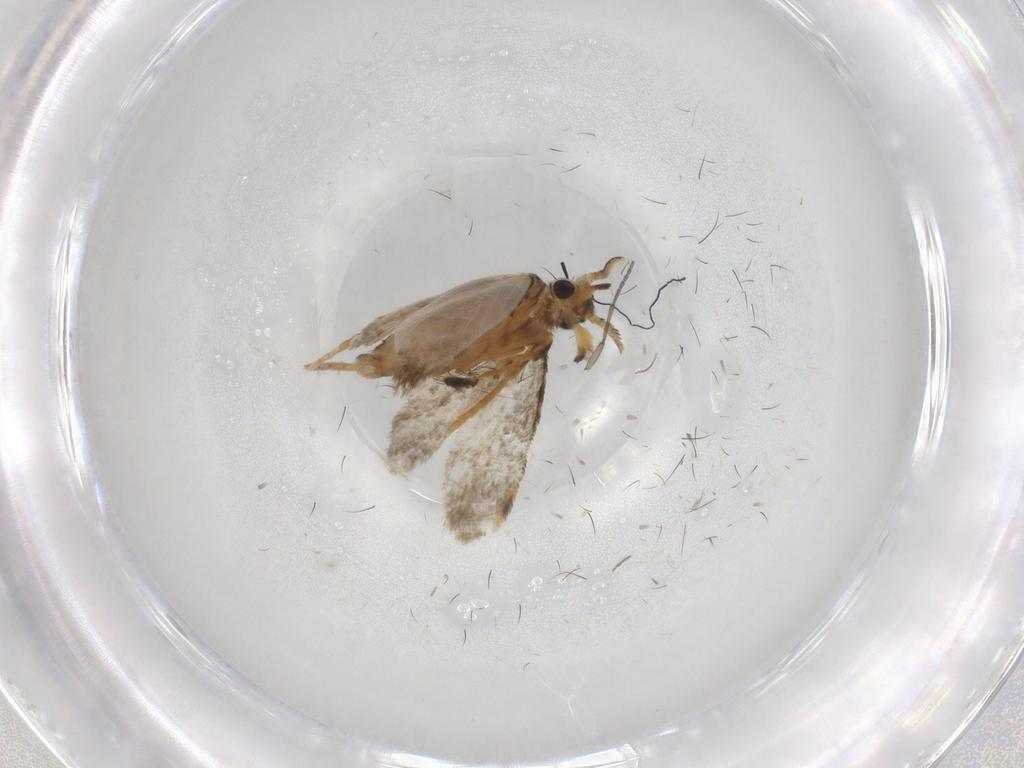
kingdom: Animalia
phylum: Arthropoda
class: Insecta
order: Lepidoptera
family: Psychidae
